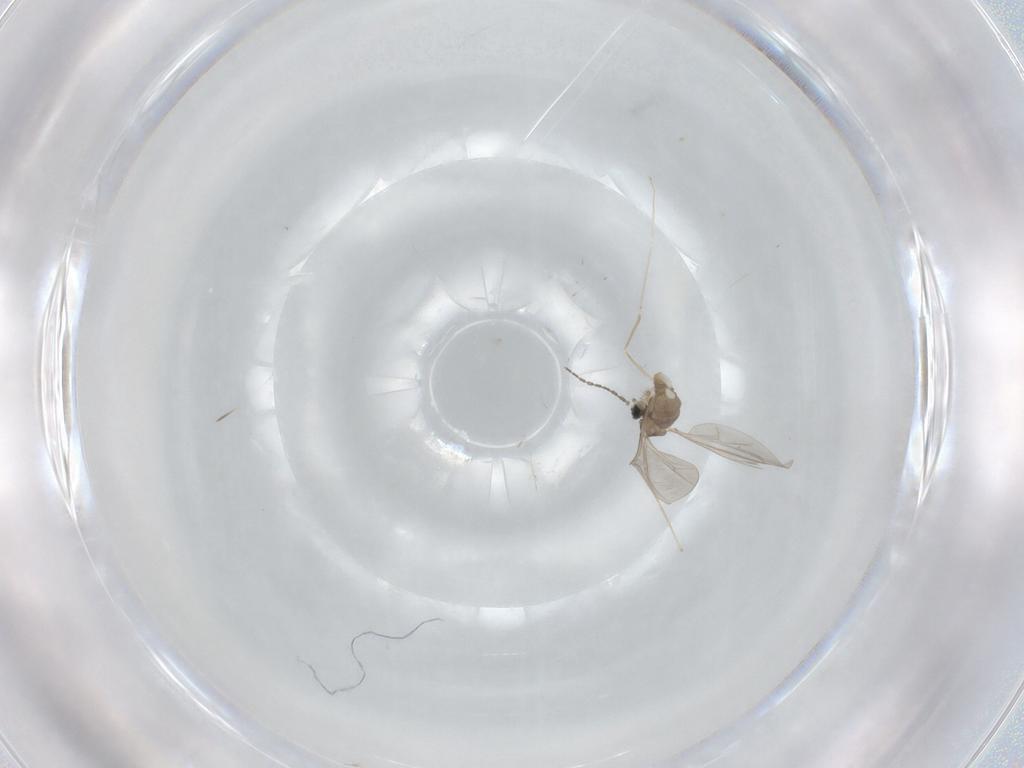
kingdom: Animalia
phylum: Arthropoda
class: Insecta
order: Diptera
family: Cecidomyiidae
